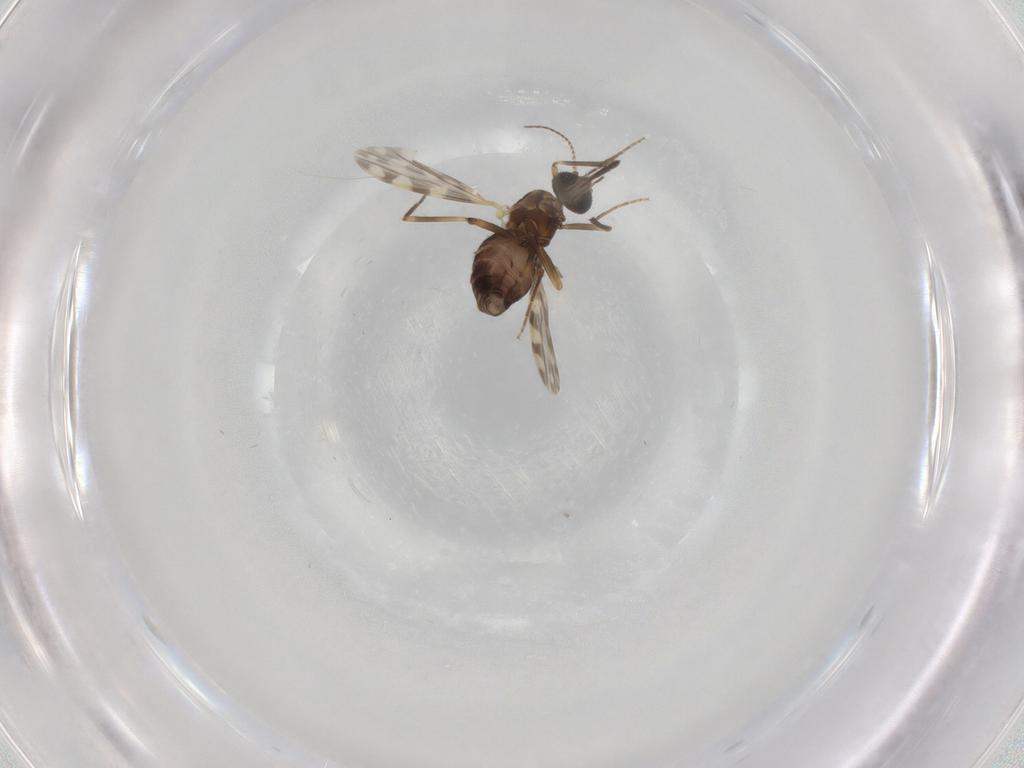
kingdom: Animalia
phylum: Arthropoda
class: Insecta
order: Diptera
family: Ceratopogonidae
